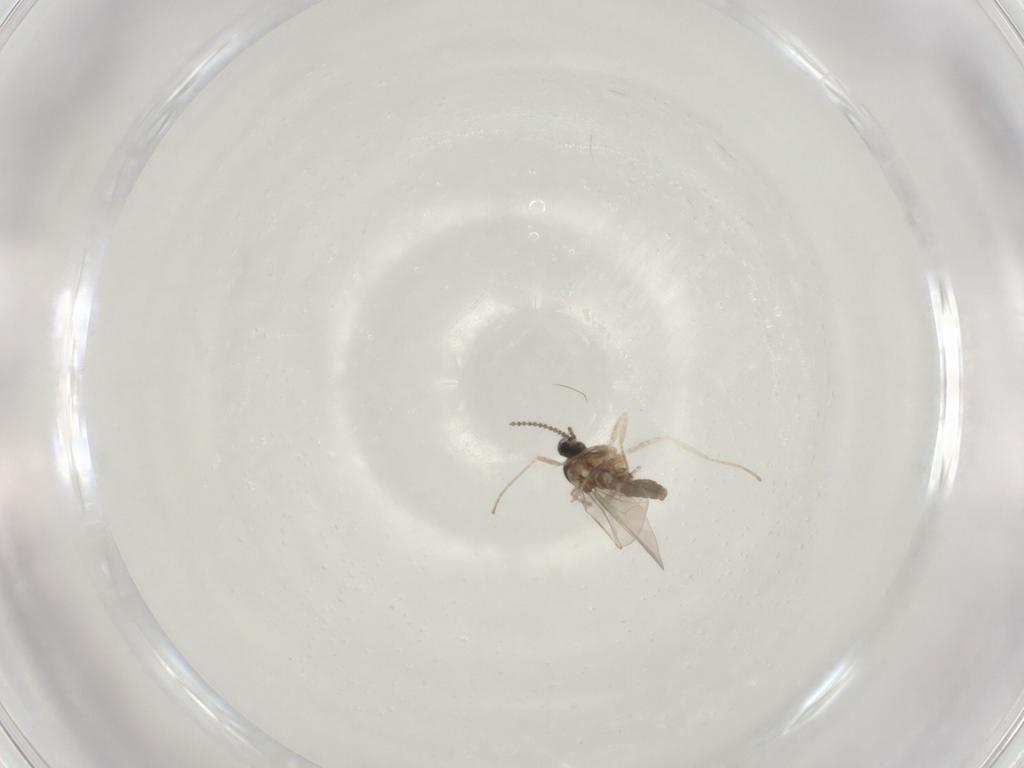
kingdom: Animalia
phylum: Arthropoda
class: Insecta
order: Diptera
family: Cecidomyiidae
